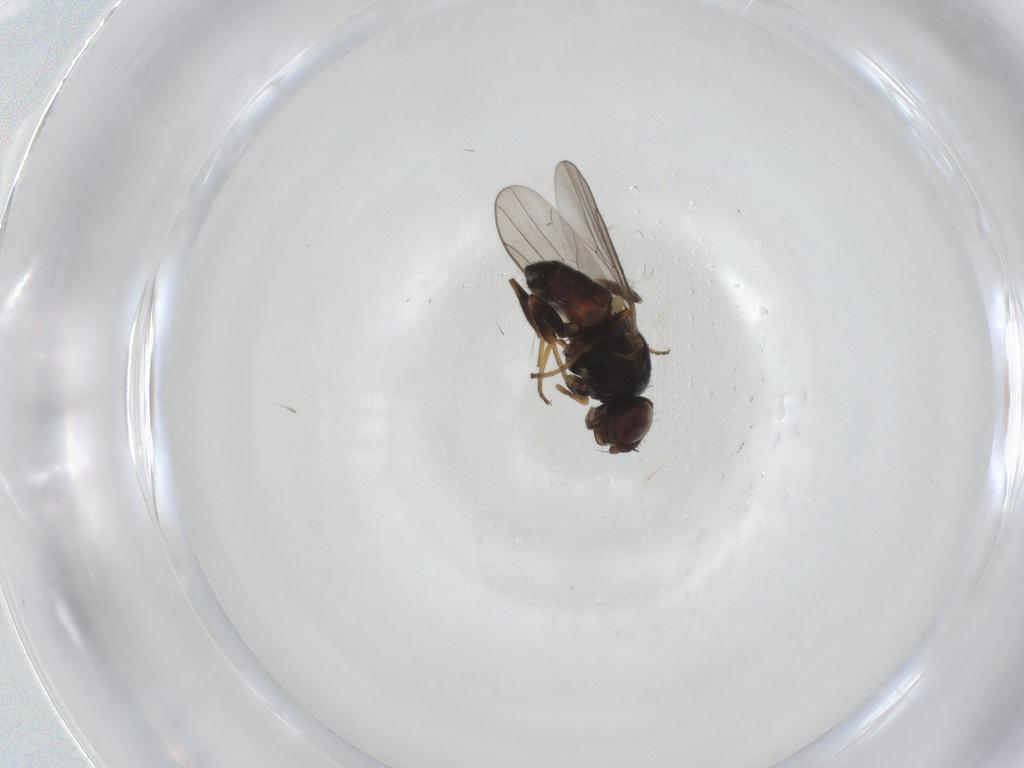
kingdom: Animalia
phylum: Arthropoda
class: Insecta
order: Diptera
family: Chloropidae
